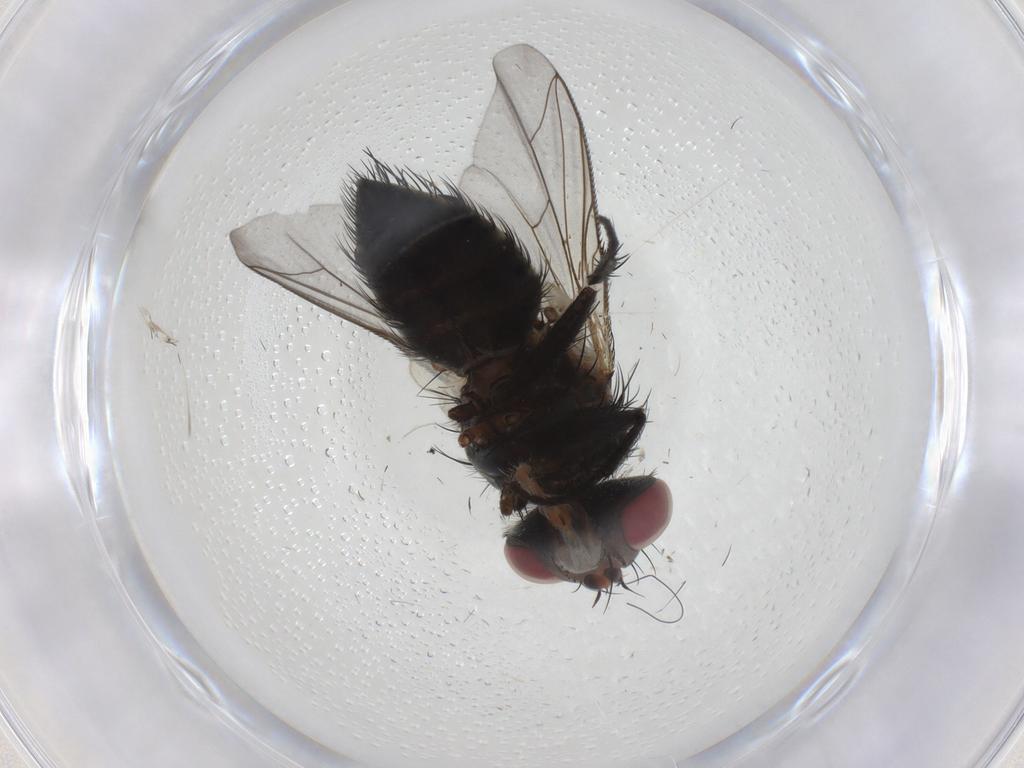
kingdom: Animalia
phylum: Arthropoda
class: Insecta
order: Diptera
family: Tachinidae
